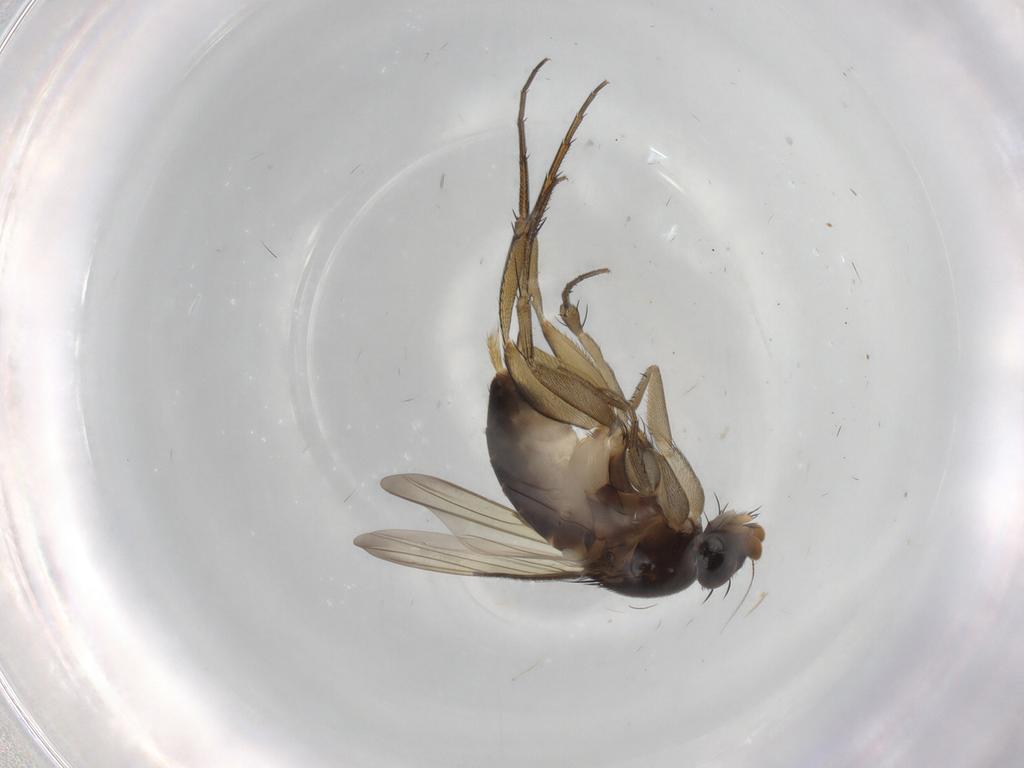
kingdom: Animalia
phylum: Arthropoda
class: Insecta
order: Diptera
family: Phoridae
